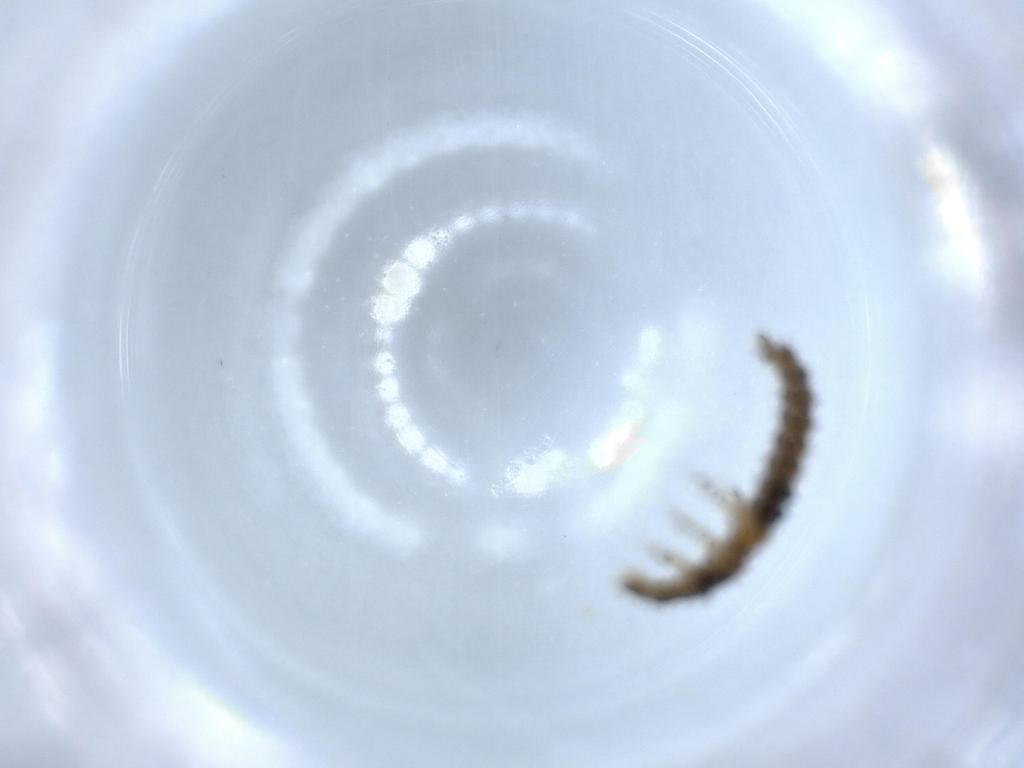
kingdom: Animalia
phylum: Arthropoda
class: Insecta
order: Coleoptera
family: Lycidae
